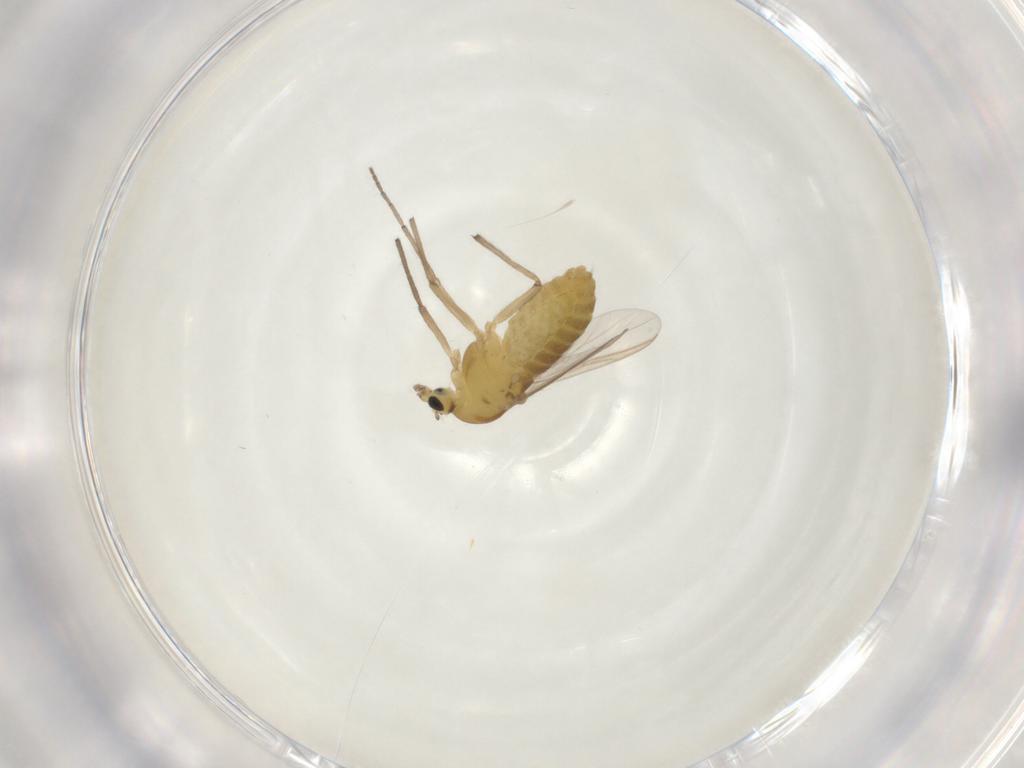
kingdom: Animalia
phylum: Arthropoda
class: Insecta
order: Diptera
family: Chironomidae
